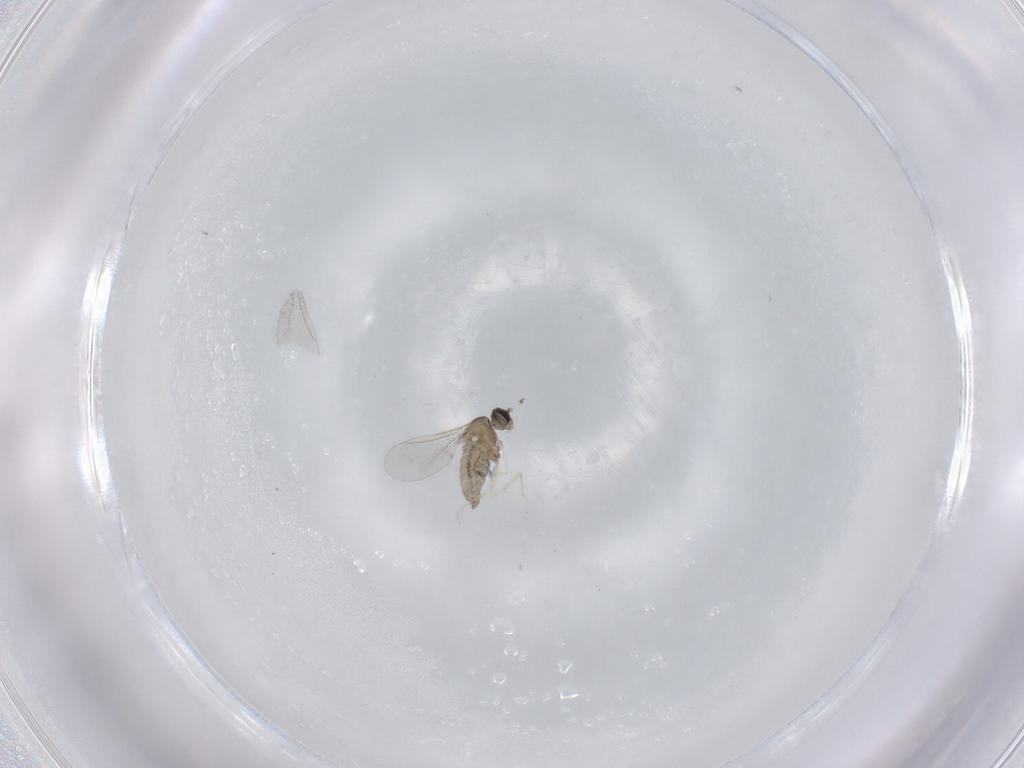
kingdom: Animalia
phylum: Arthropoda
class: Insecta
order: Diptera
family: Cecidomyiidae
